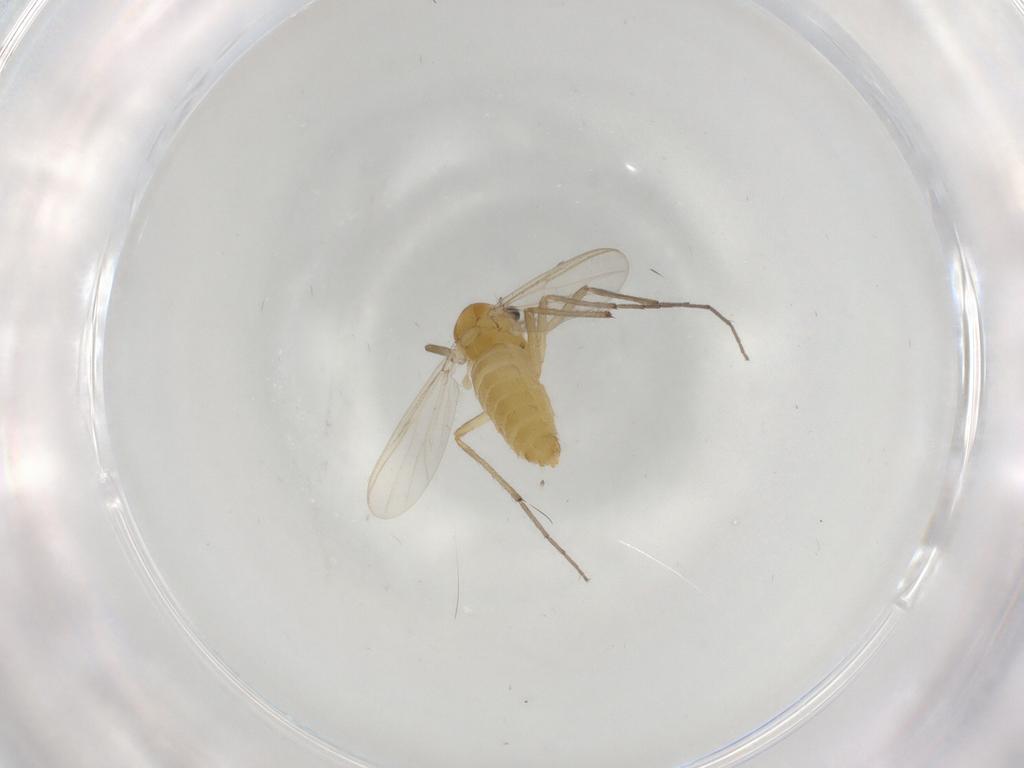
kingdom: Animalia
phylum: Arthropoda
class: Insecta
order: Diptera
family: Chironomidae
